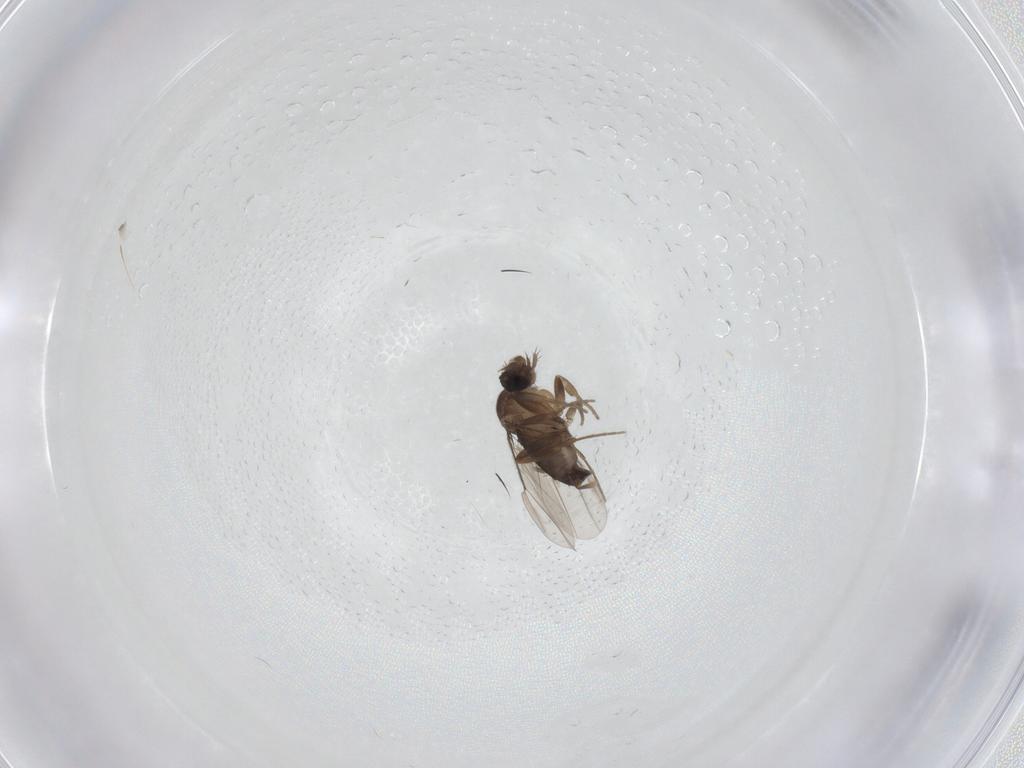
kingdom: Animalia
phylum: Arthropoda
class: Insecta
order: Diptera
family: Phoridae
